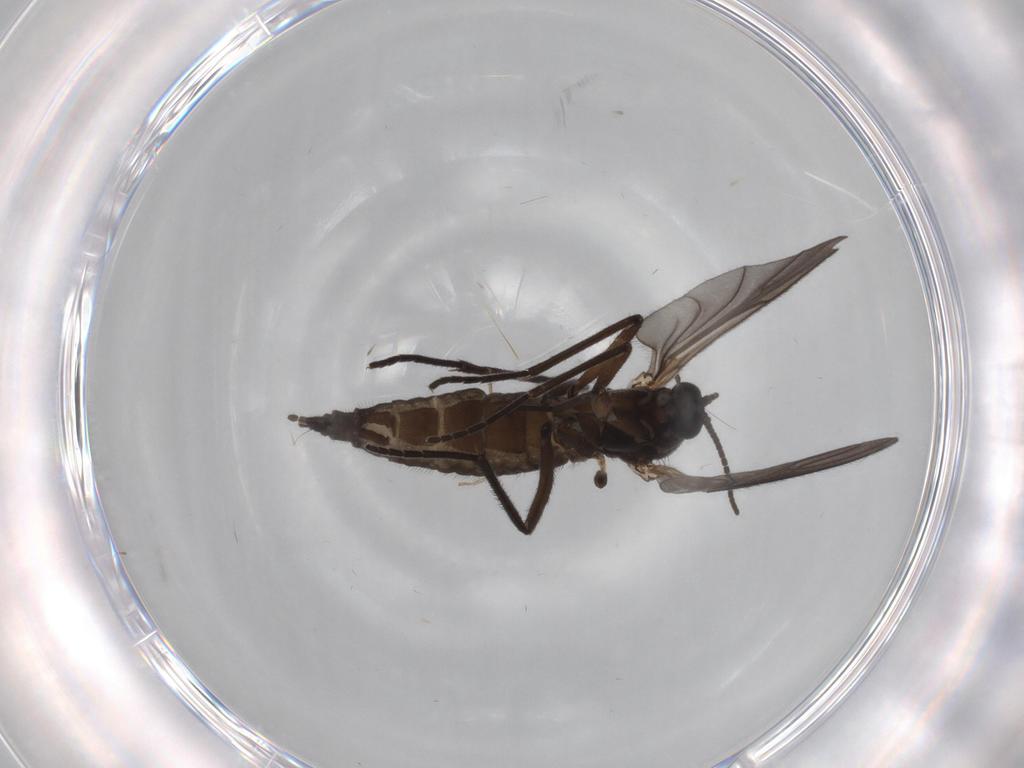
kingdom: Animalia
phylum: Arthropoda
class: Insecta
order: Diptera
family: Sciaridae
